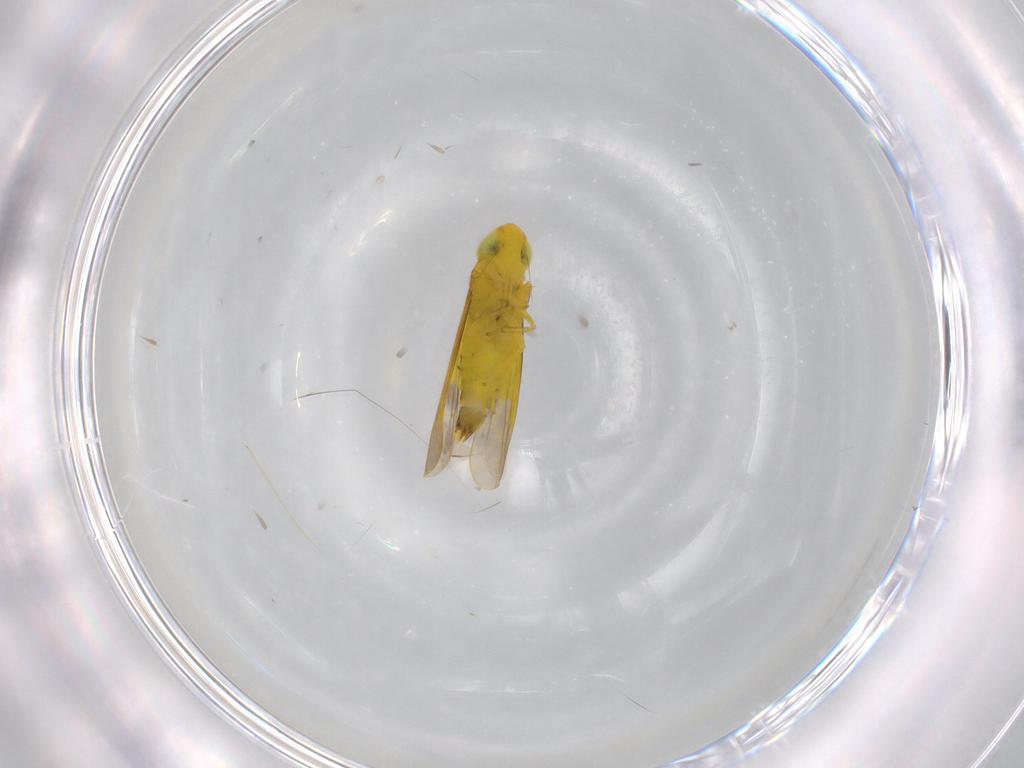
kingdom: Animalia
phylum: Arthropoda
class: Insecta
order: Hemiptera
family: Cicadellidae
